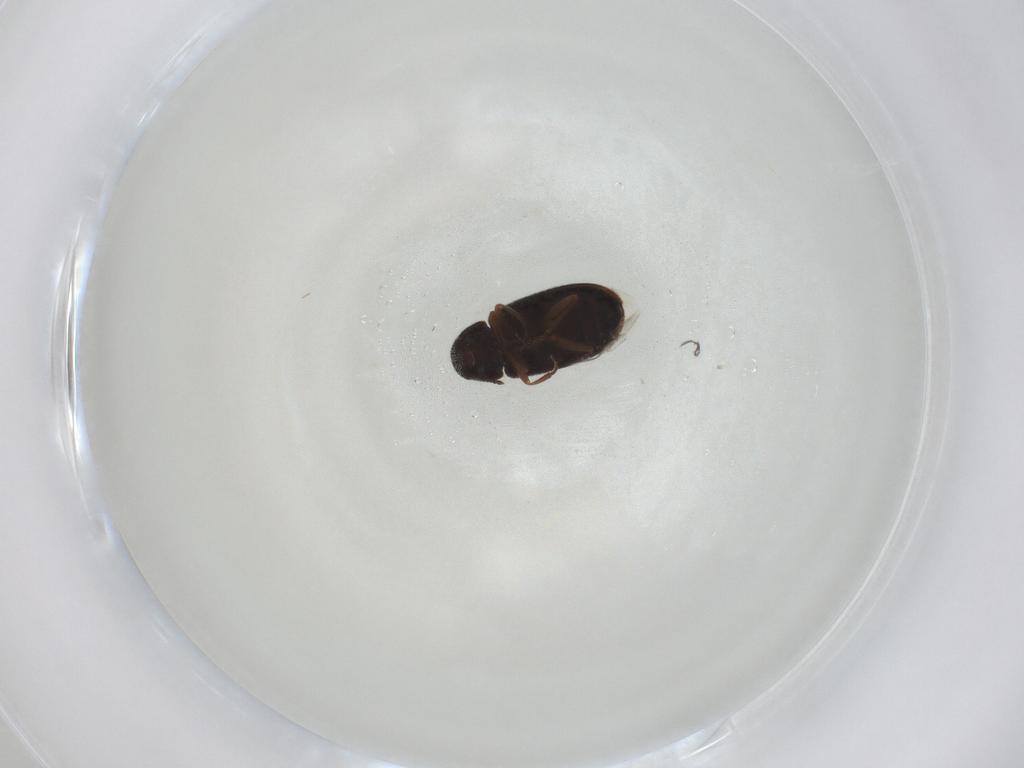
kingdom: Animalia
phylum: Arthropoda
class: Insecta
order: Coleoptera
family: Rhadalidae
